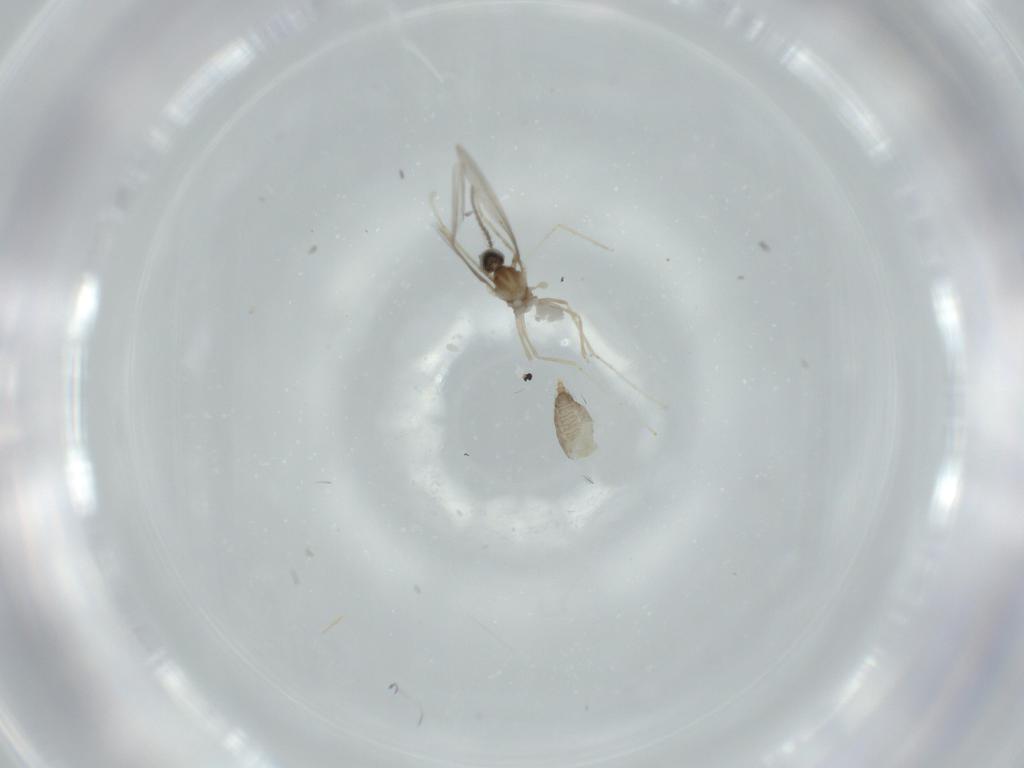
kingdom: Animalia
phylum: Arthropoda
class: Insecta
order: Diptera
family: Cecidomyiidae
